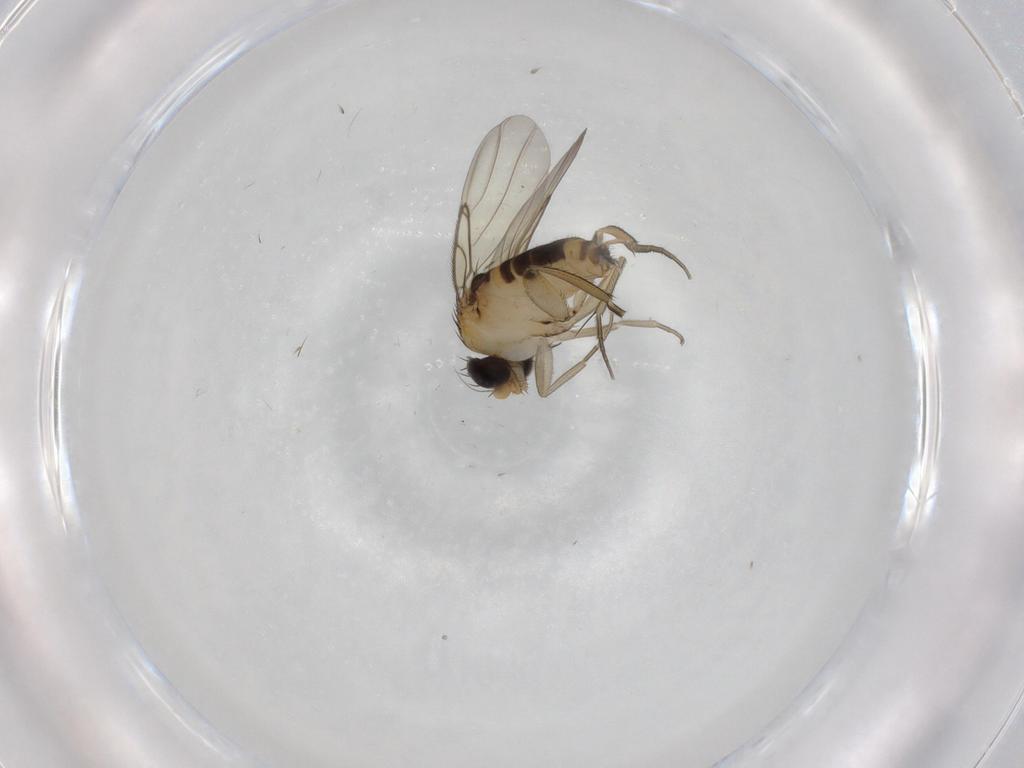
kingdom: Animalia
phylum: Arthropoda
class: Insecta
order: Diptera
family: Phoridae
